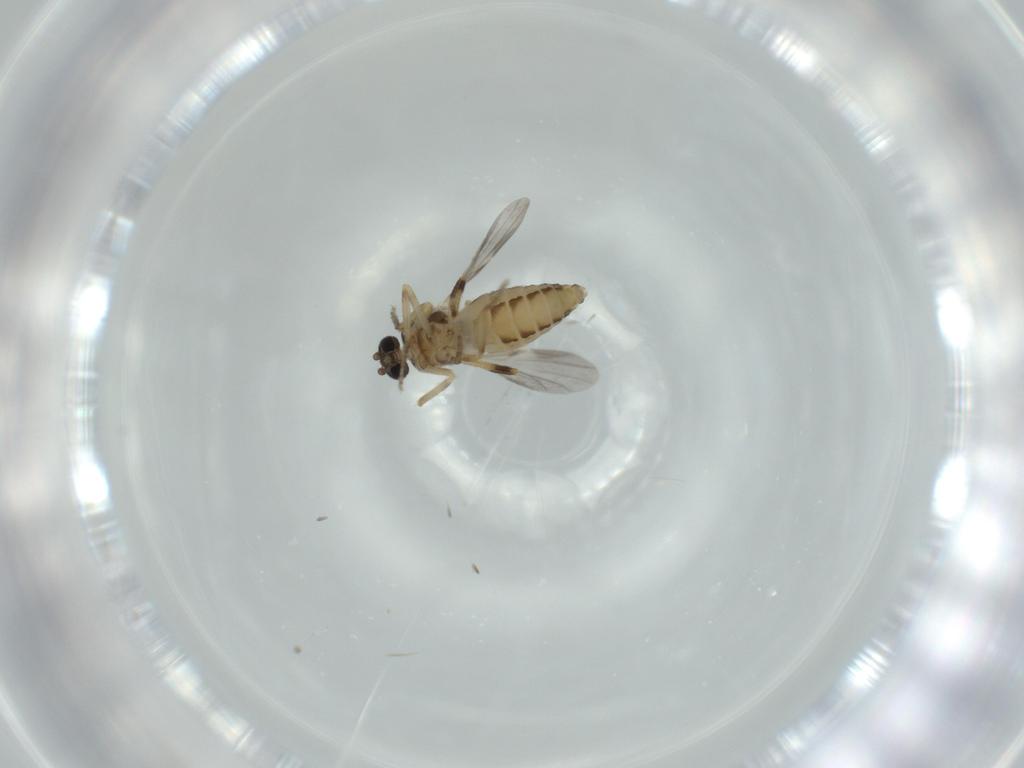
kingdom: Animalia
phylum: Arthropoda
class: Insecta
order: Diptera
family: Ceratopogonidae
